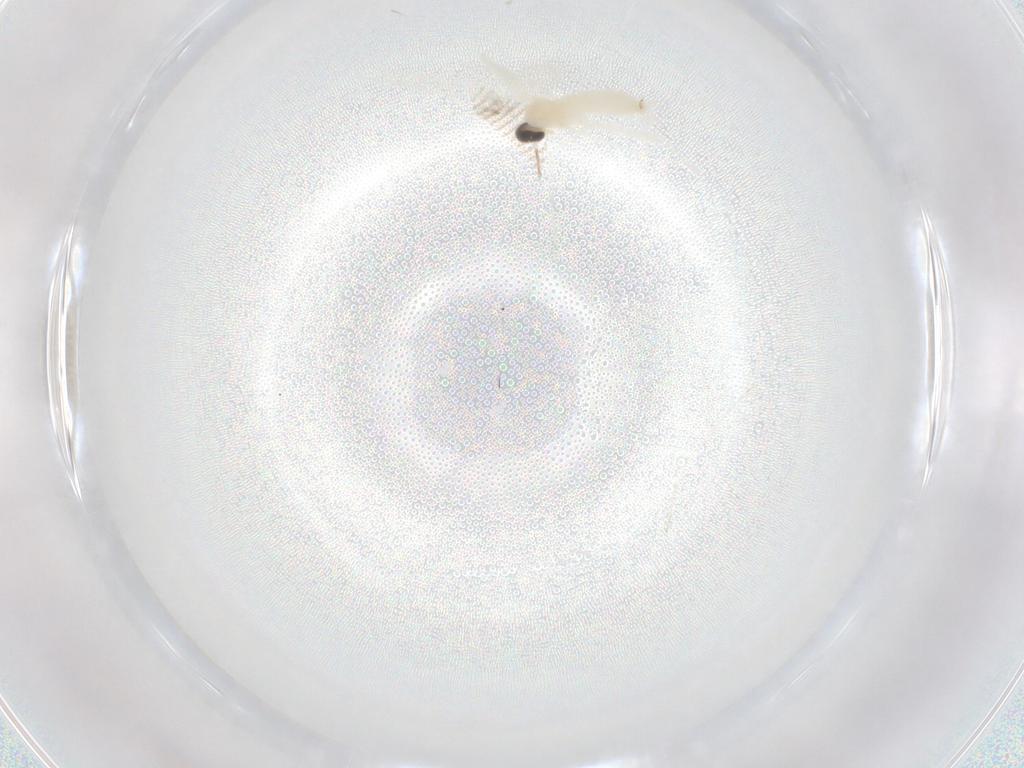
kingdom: Animalia
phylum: Arthropoda
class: Insecta
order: Diptera
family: Cecidomyiidae
